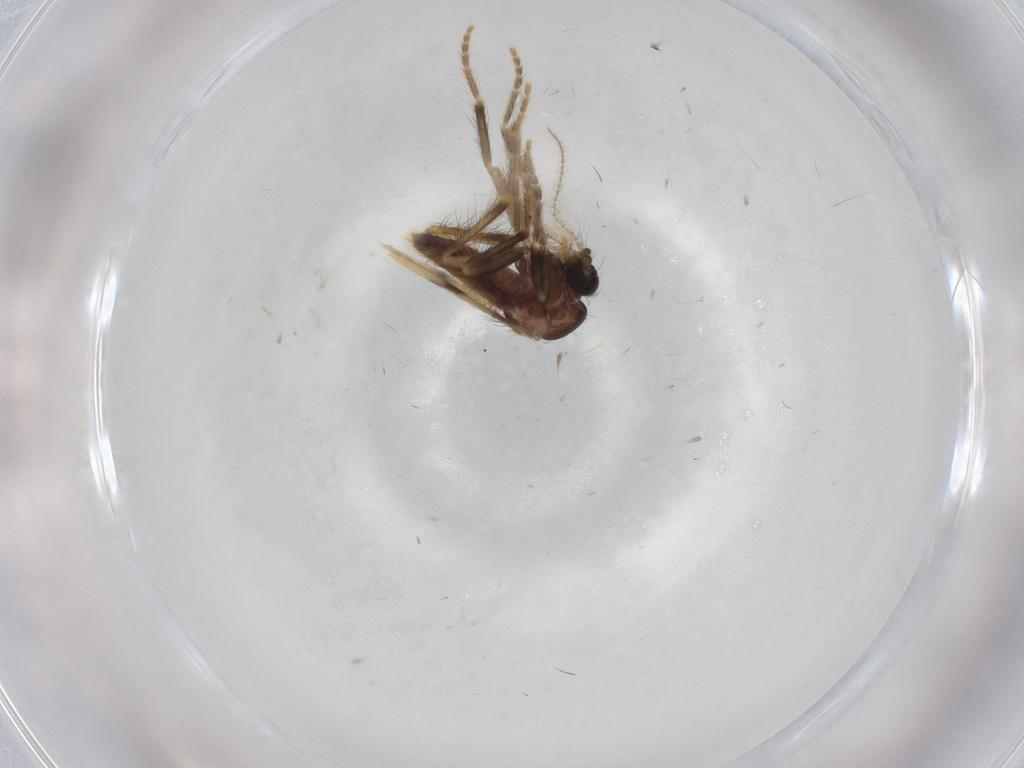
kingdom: Animalia
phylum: Arthropoda
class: Insecta
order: Diptera
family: Corethrellidae
